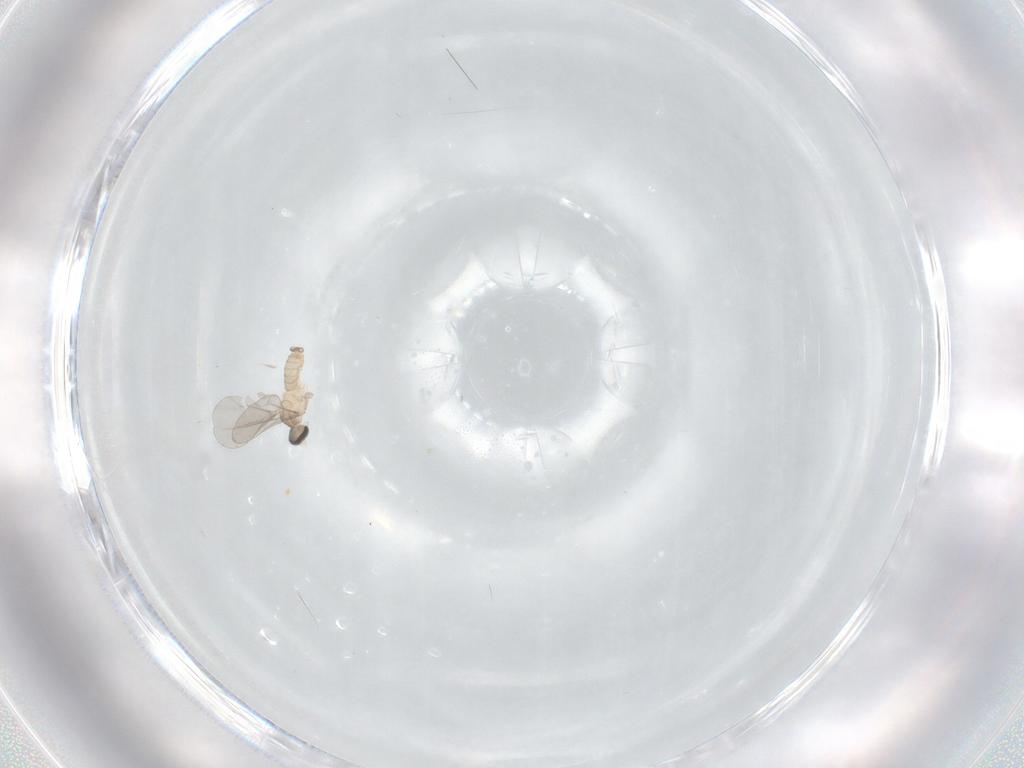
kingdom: Animalia
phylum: Arthropoda
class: Insecta
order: Diptera
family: Cecidomyiidae
